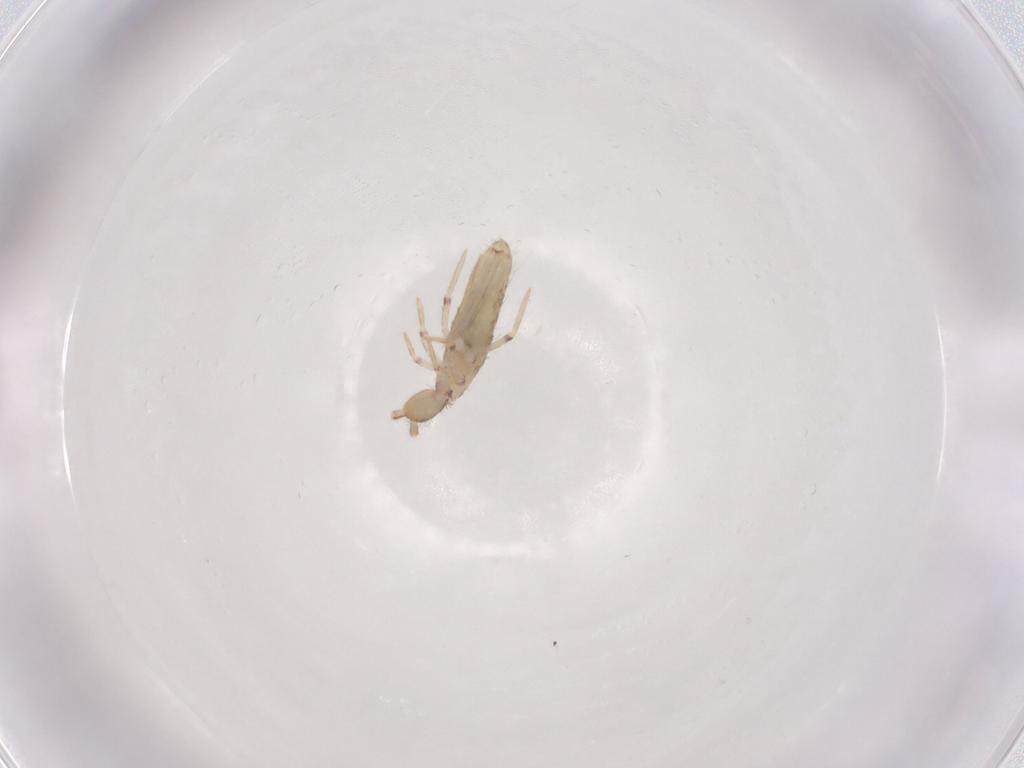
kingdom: Animalia
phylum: Arthropoda
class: Collembola
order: Entomobryomorpha
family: Entomobryidae
